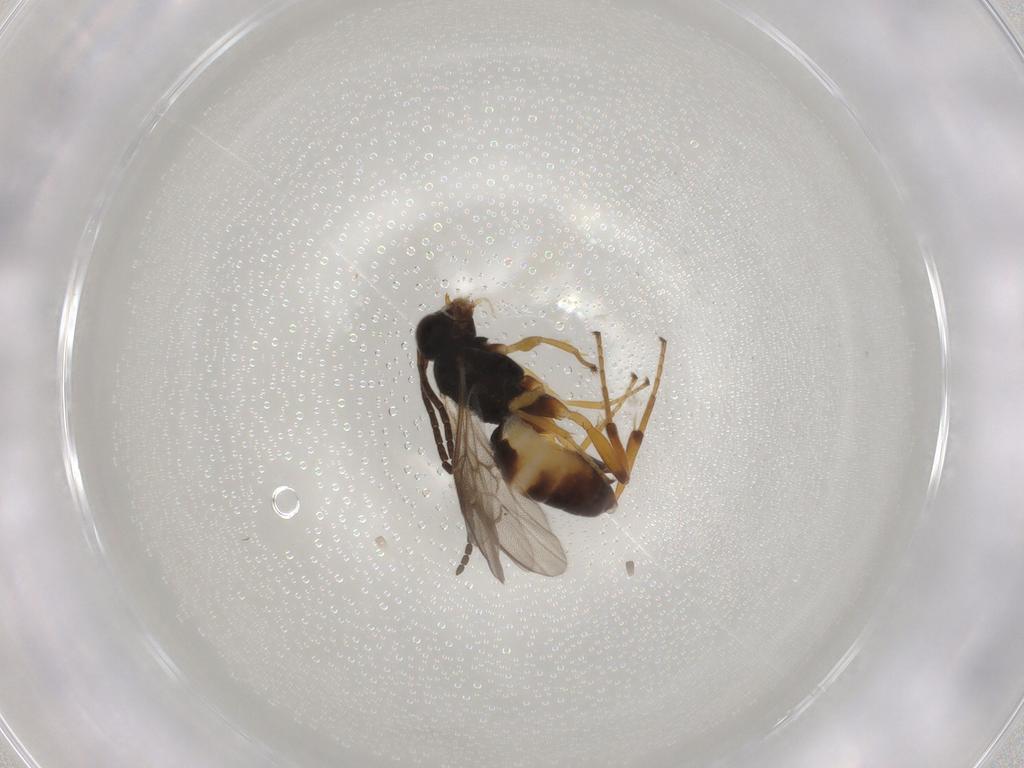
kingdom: Animalia
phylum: Arthropoda
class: Insecta
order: Hymenoptera
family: Braconidae
